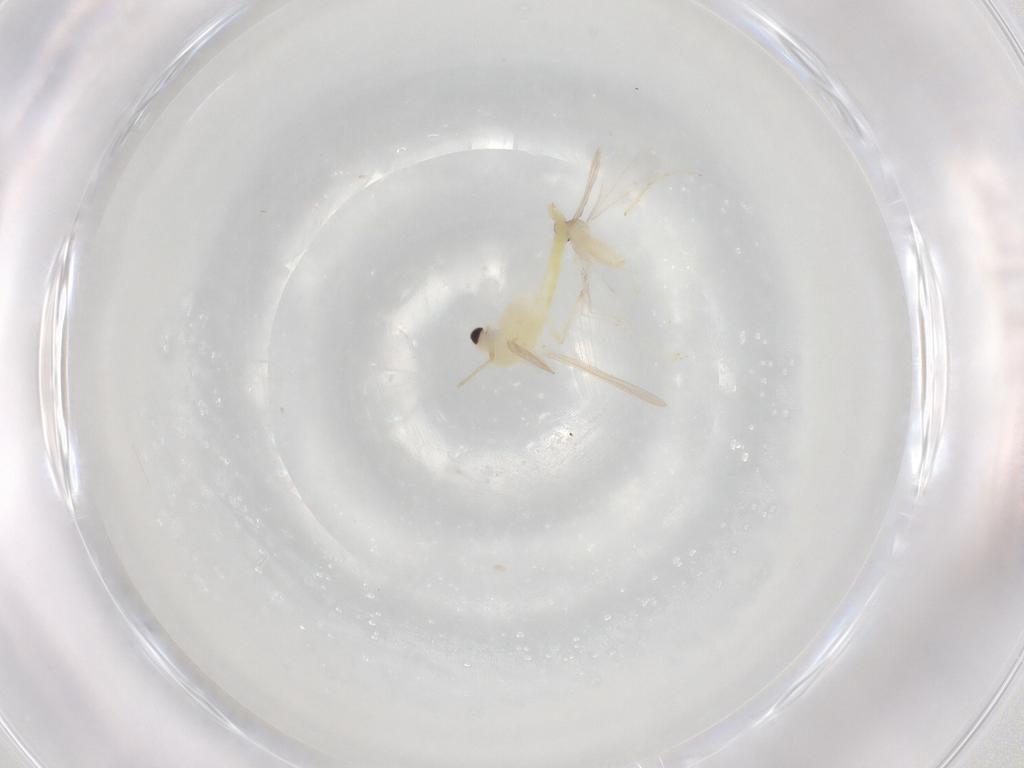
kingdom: Animalia
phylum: Arthropoda
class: Insecta
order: Diptera
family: Chironomidae
